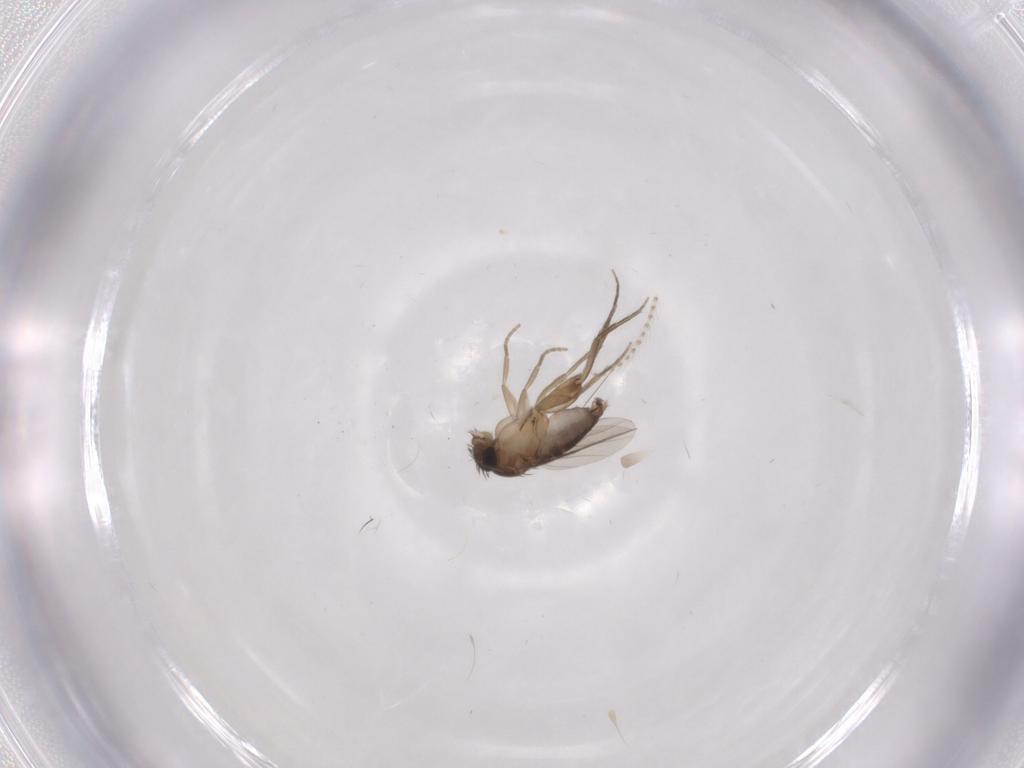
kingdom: Animalia
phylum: Arthropoda
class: Insecta
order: Diptera
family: Psychodidae
